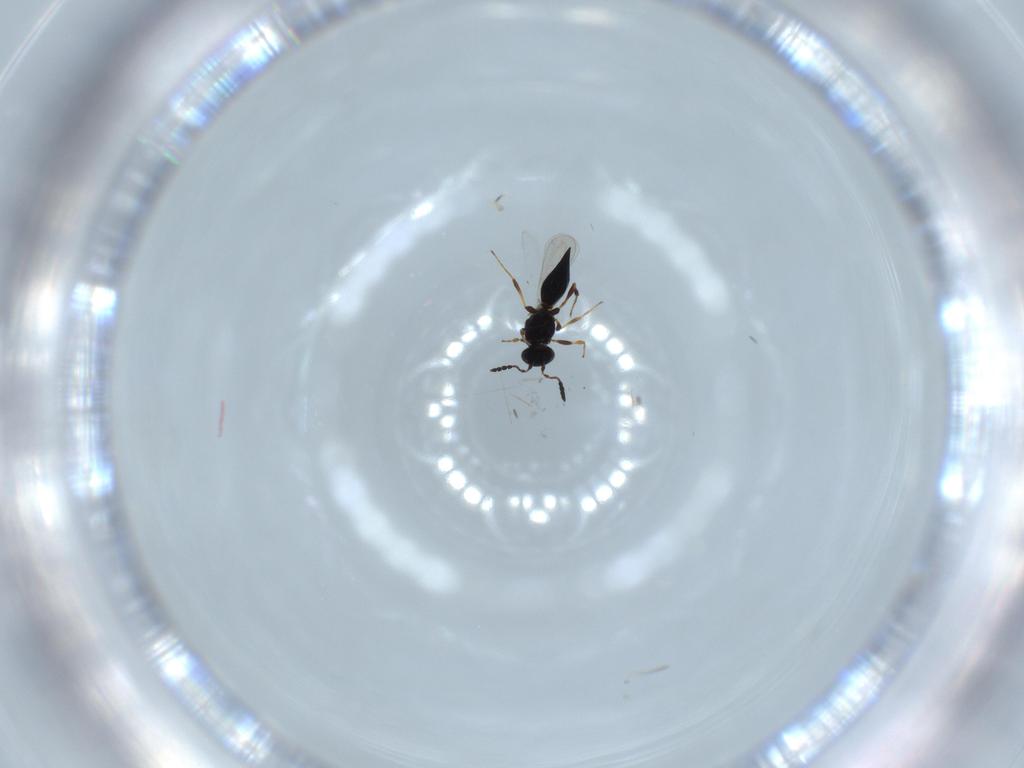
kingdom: Animalia
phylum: Arthropoda
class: Insecta
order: Hymenoptera
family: Platygastridae
